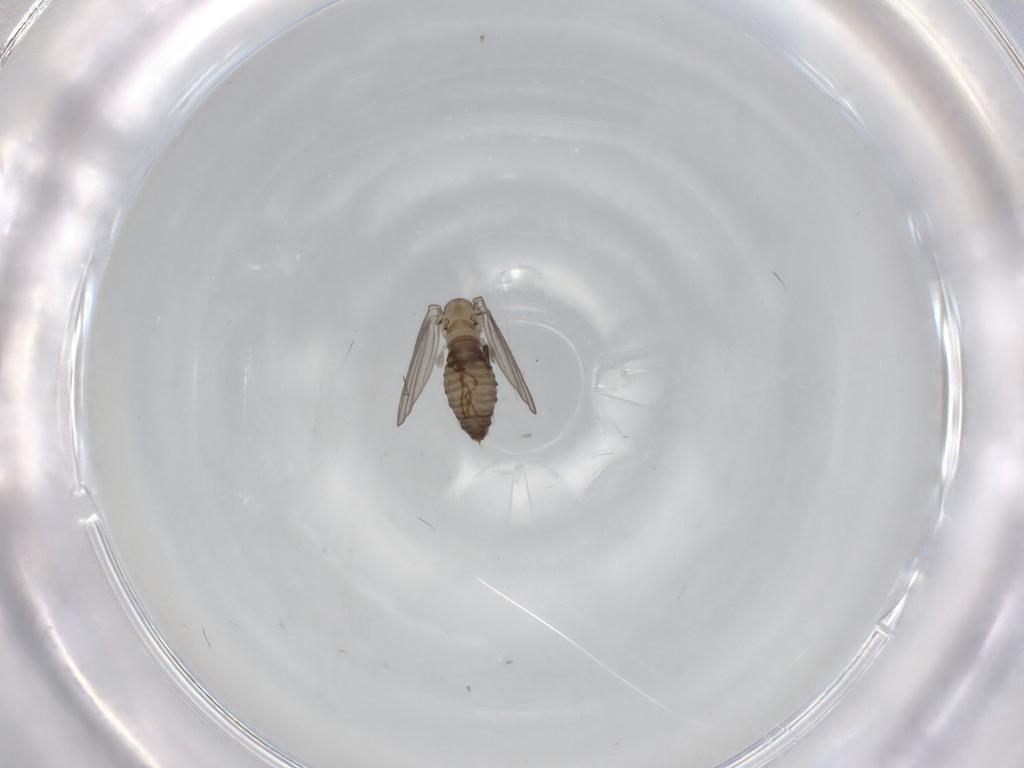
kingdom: Animalia
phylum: Arthropoda
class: Insecta
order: Diptera
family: Psychodidae
